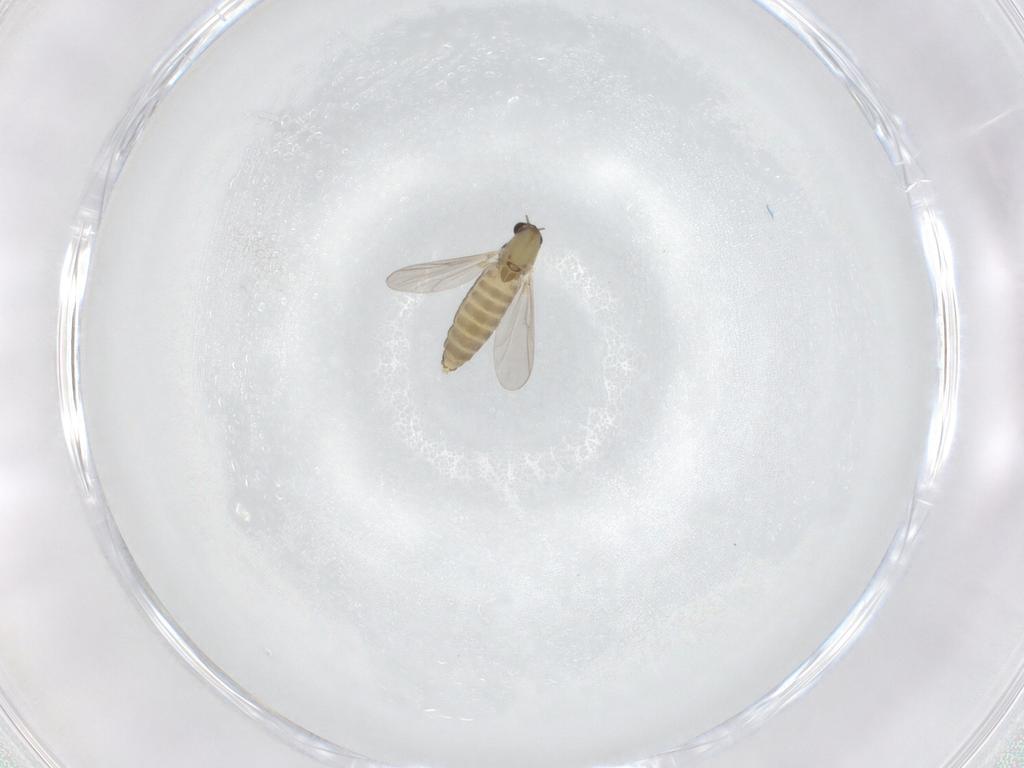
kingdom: Animalia
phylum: Arthropoda
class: Insecta
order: Diptera
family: Chironomidae
